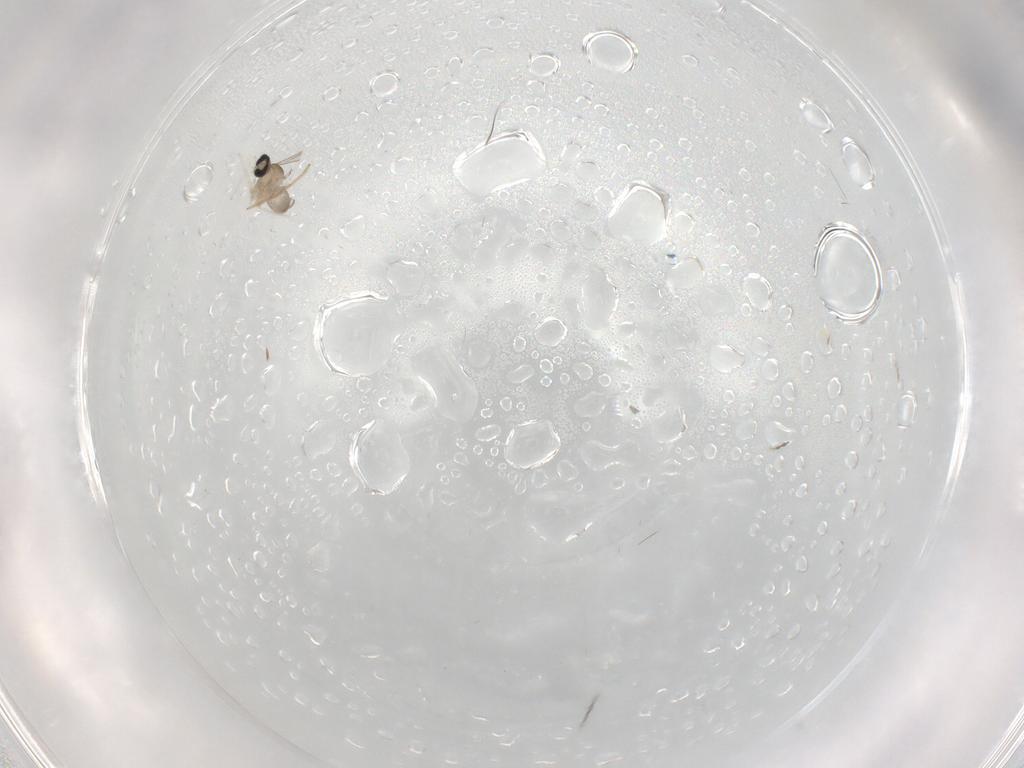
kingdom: Animalia
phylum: Arthropoda
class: Insecta
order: Diptera
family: Cecidomyiidae
